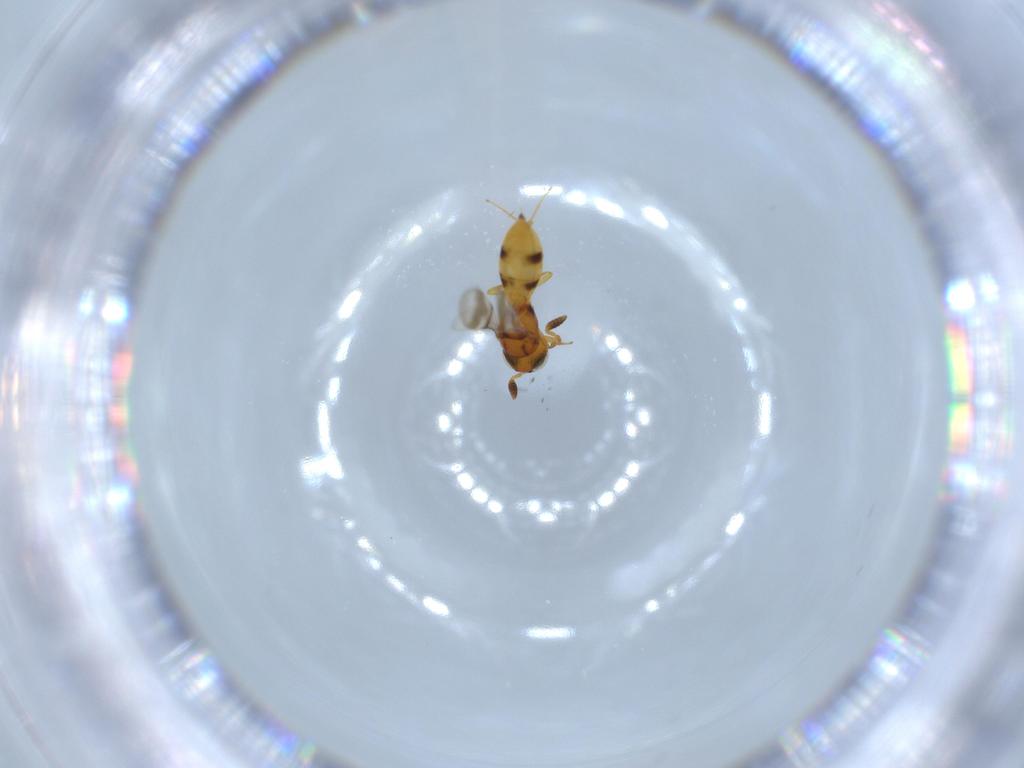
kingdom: Animalia
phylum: Arthropoda
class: Insecta
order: Hymenoptera
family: Scelionidae
